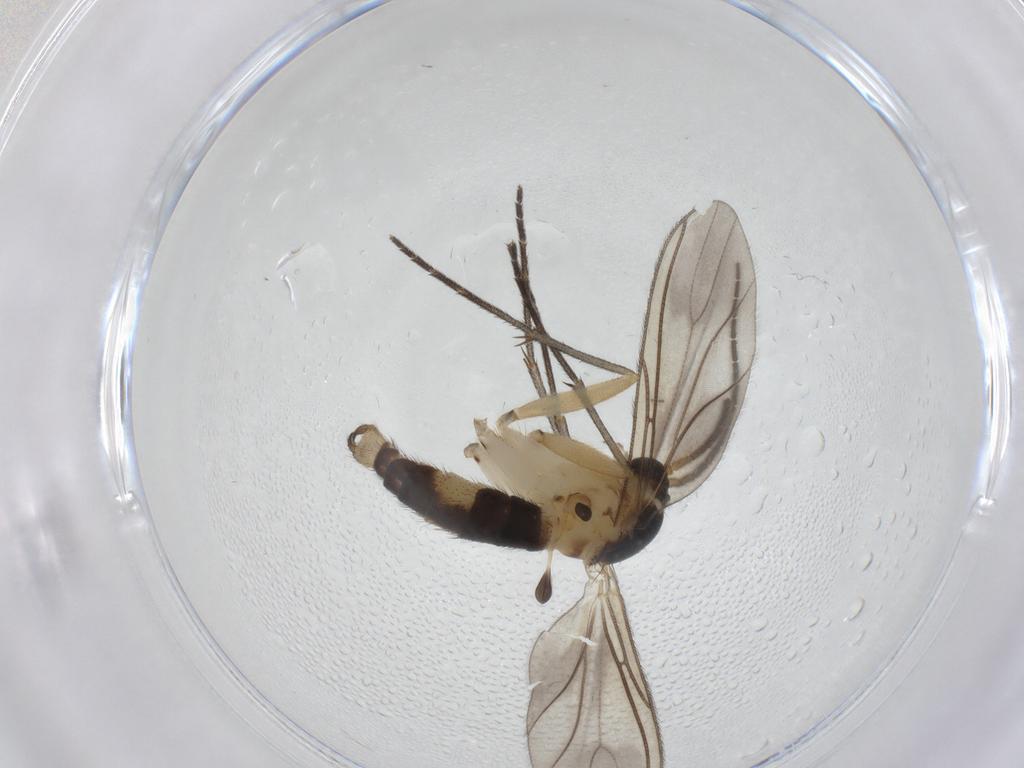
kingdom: Animalia
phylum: Arthropoda
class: Insecta
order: Diptera
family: Sciaridae
